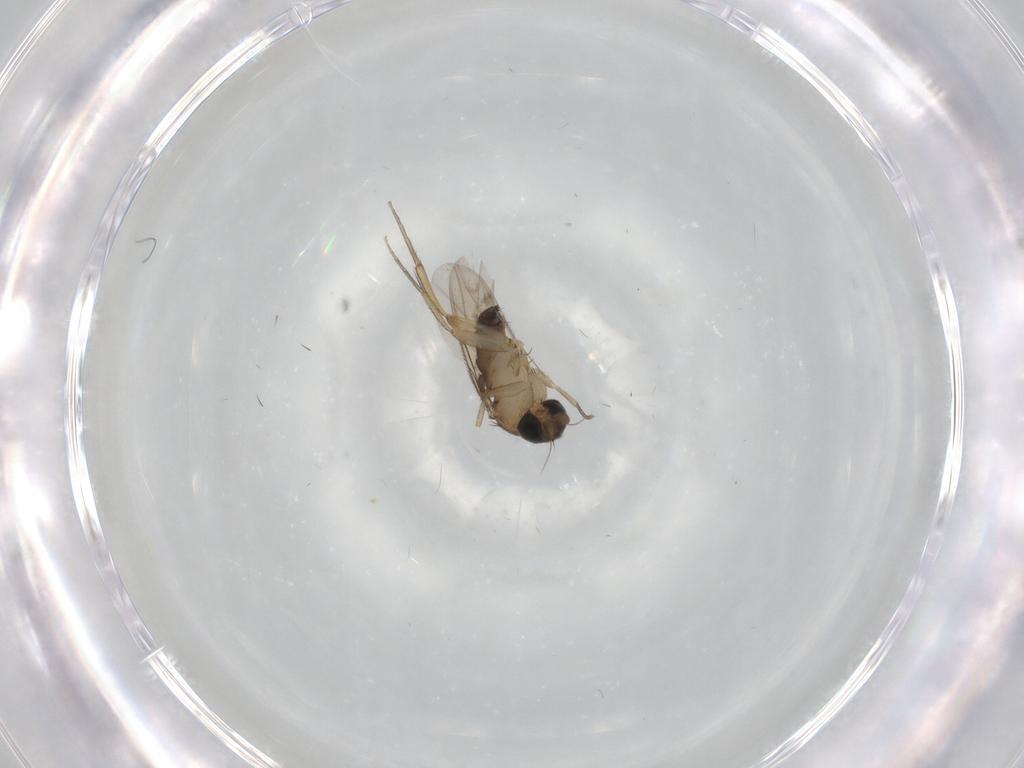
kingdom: Animalia
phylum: Arthropoda
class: Insecta
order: Diptera
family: Phoridae
